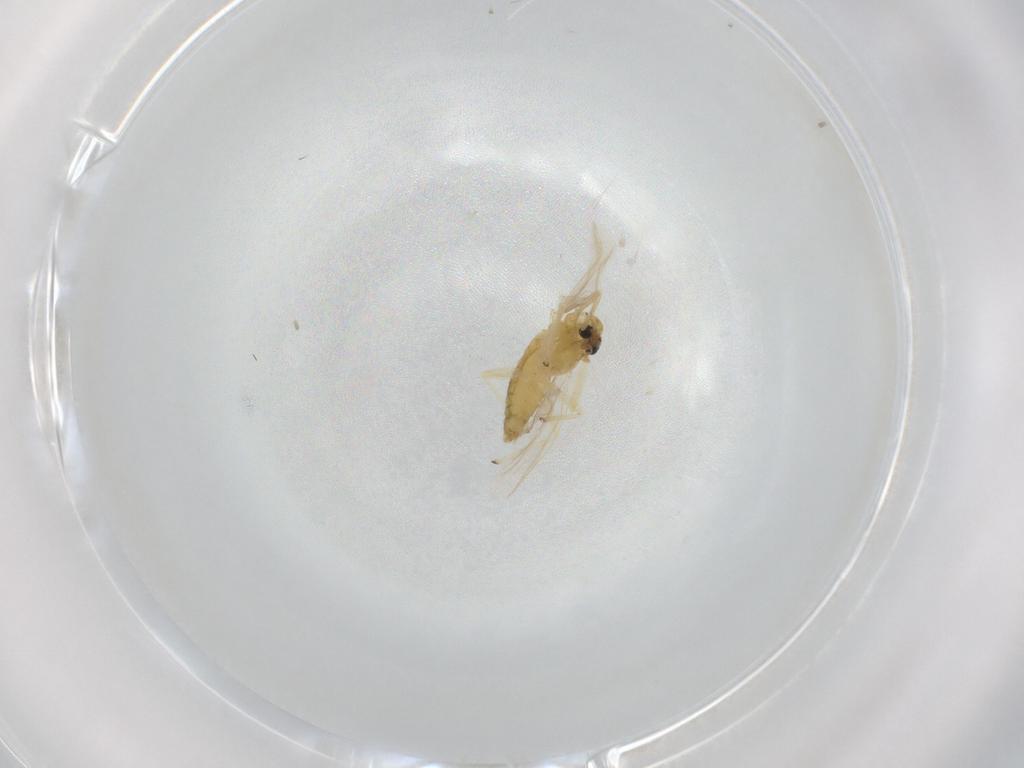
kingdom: Animalia
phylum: Arthropoda
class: Insecta
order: Diptera
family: Chironomidae
